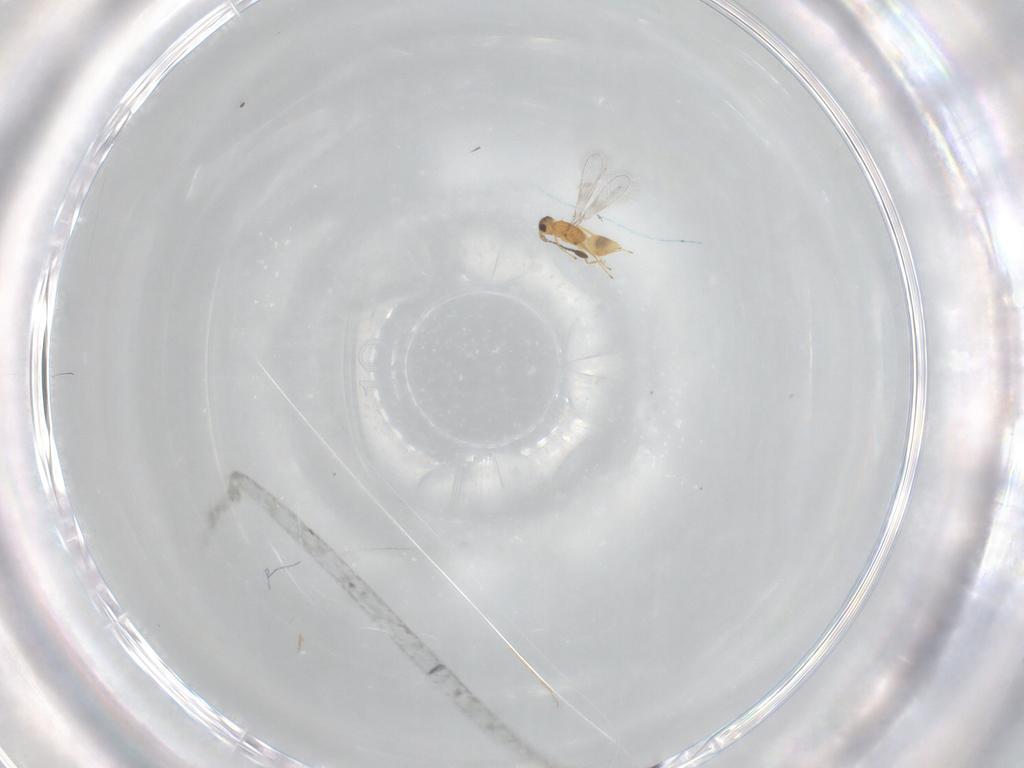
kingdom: Animalia
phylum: Arthropoda
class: Insecta
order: Hymenoptera
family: Mymaridae
